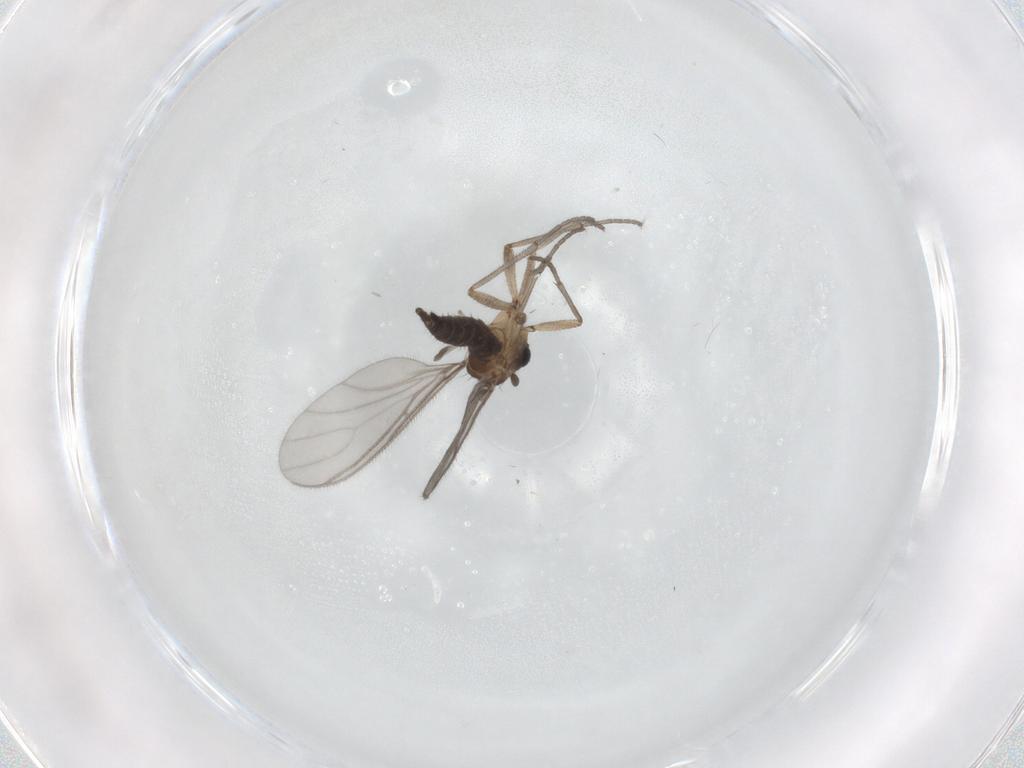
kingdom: Animalia
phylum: Arthropoda
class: Insecta
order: Diptera
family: Sciaridae
